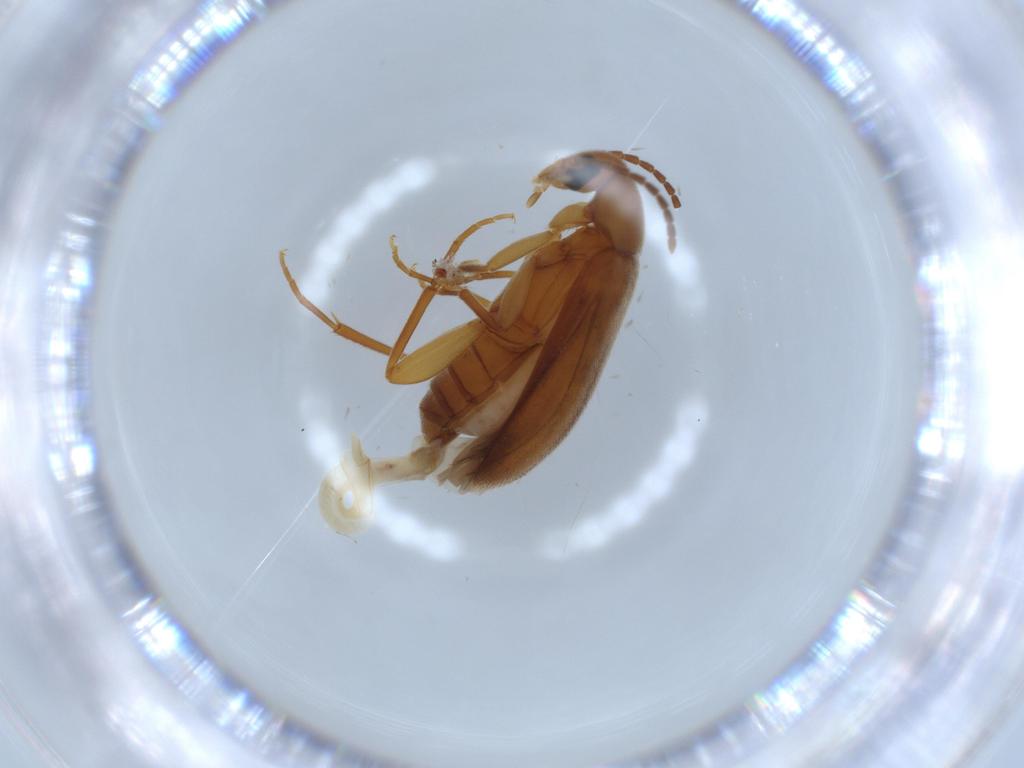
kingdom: Animalia
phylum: Arthropoda
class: Insecta
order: Coleoptera
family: Scraptiidae
